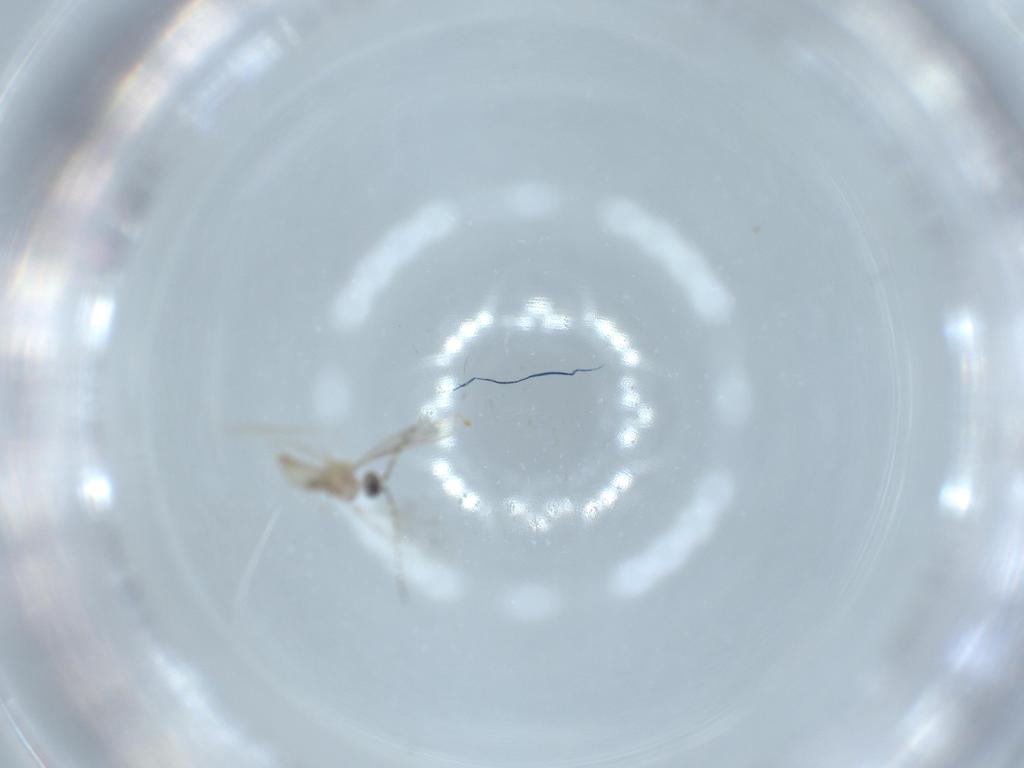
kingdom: Animalia
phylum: Arthropoda
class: Insecta
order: Diptera
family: Cecidomyiidae
